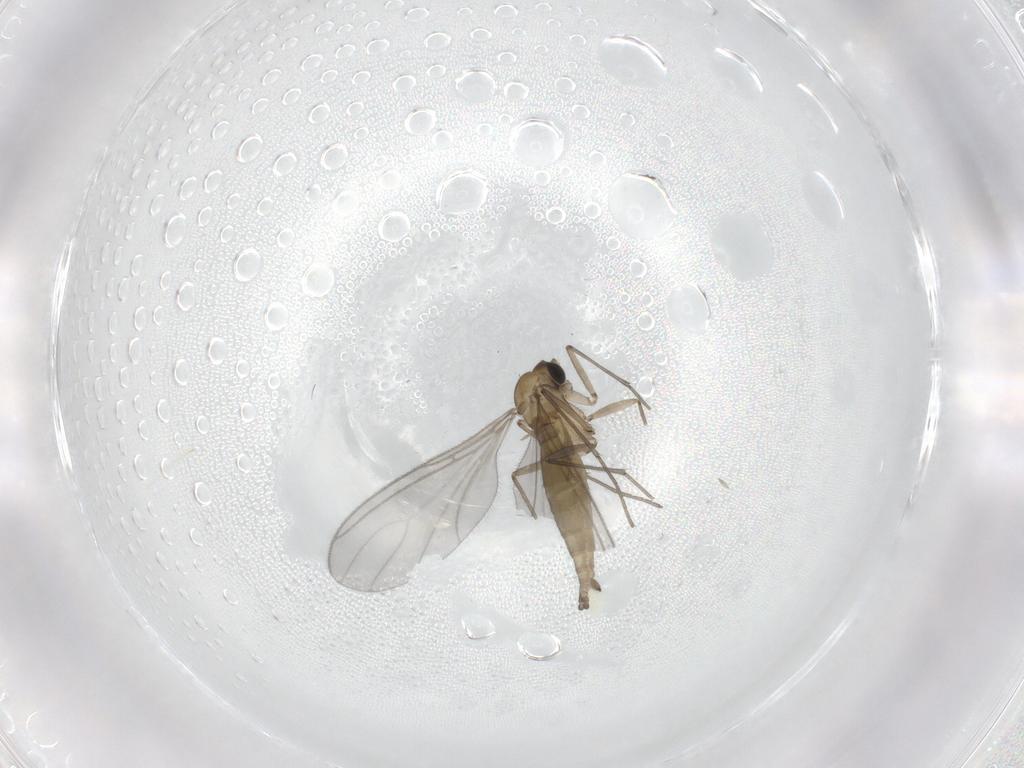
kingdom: Animalia
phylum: Arthropoda
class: Insecta
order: Diptera
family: Sciaridae
